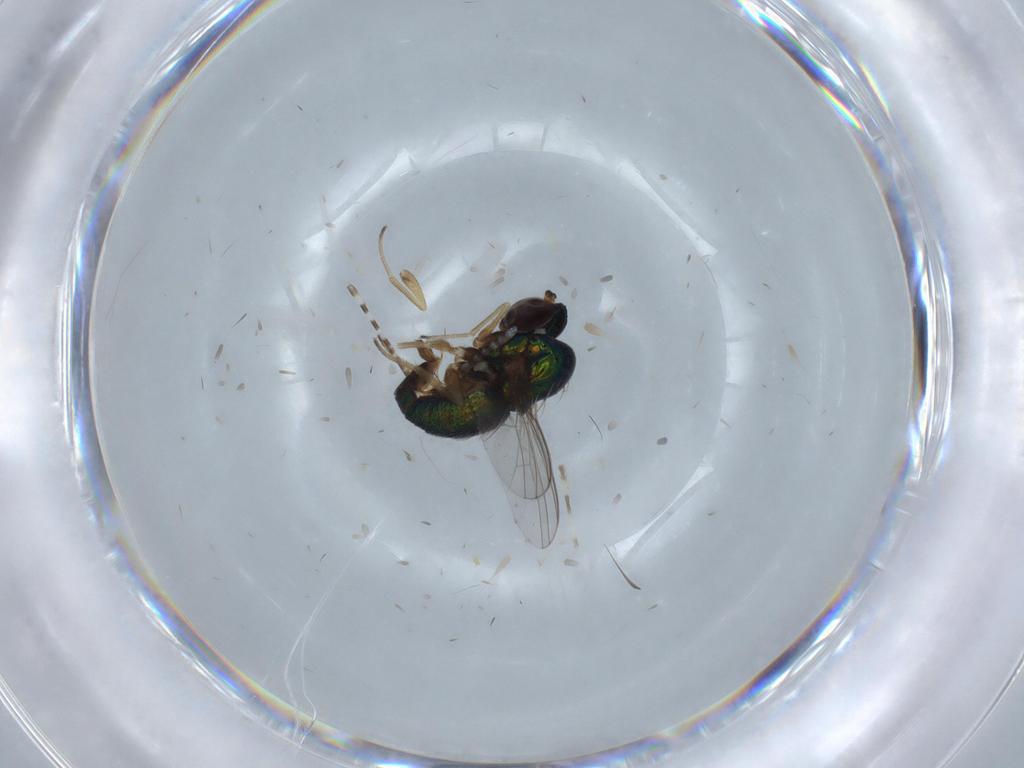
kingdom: Animalia
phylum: Arthropoda
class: Insecta
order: Diptera
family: Dolichopodidae
